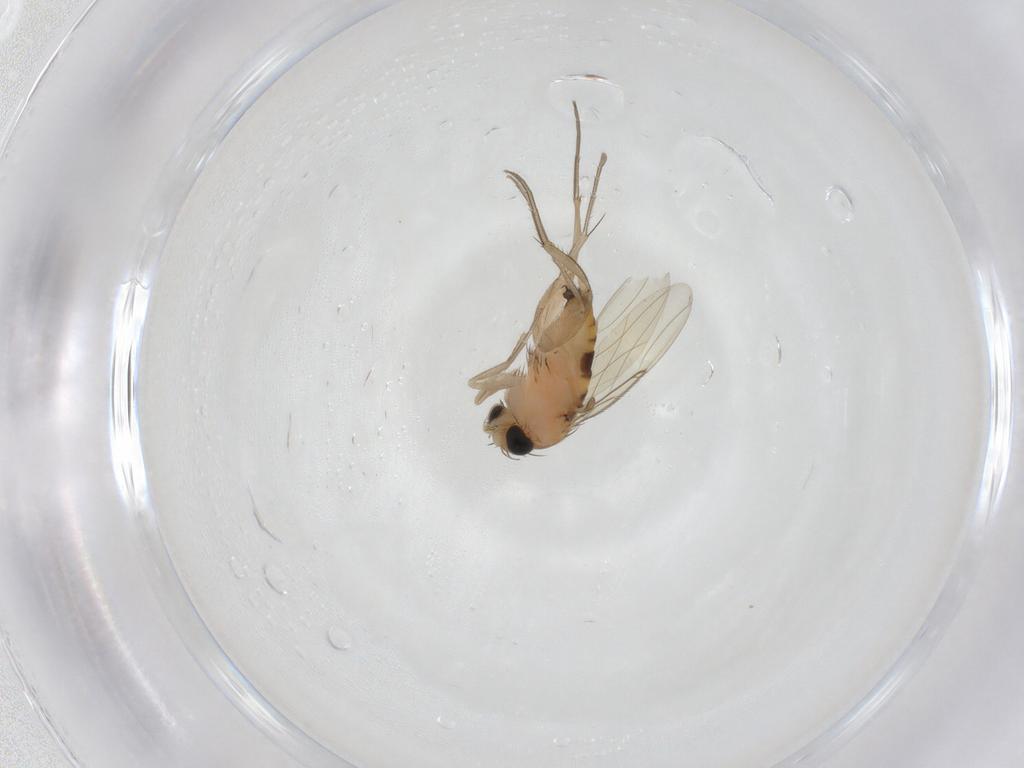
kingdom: Animalia
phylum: Arthropoda
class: Insecta
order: Diptera
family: Phoridae
